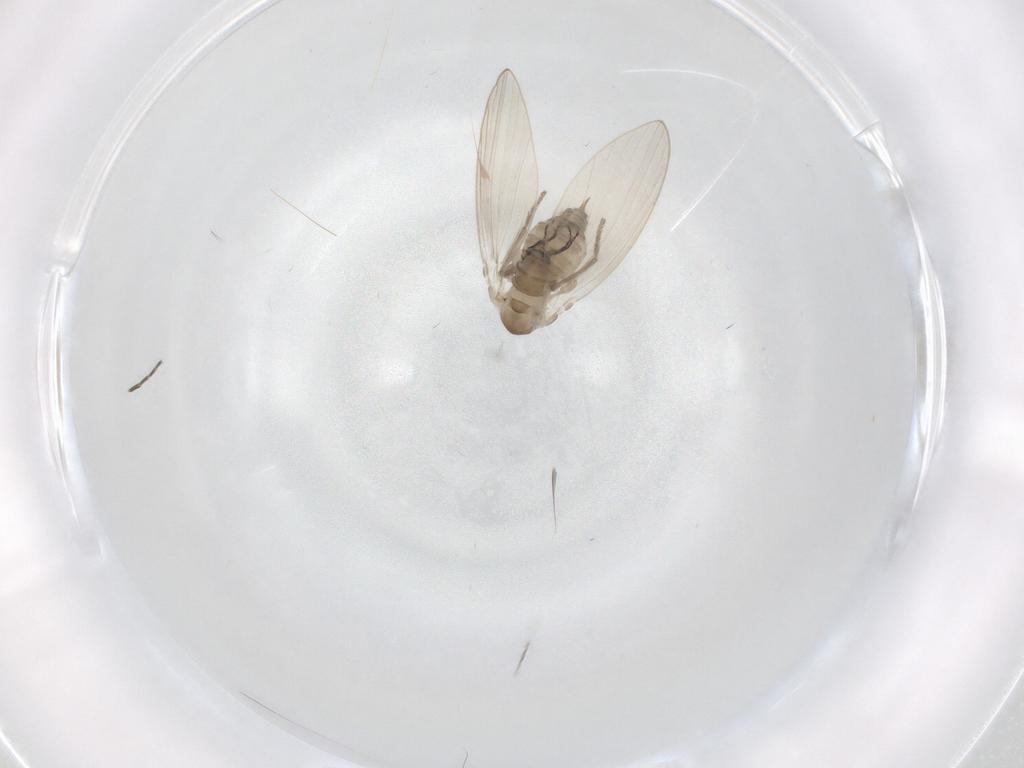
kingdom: Animalia
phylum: Arthropoda
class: Insecta
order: Diptera
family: Psychodidae
